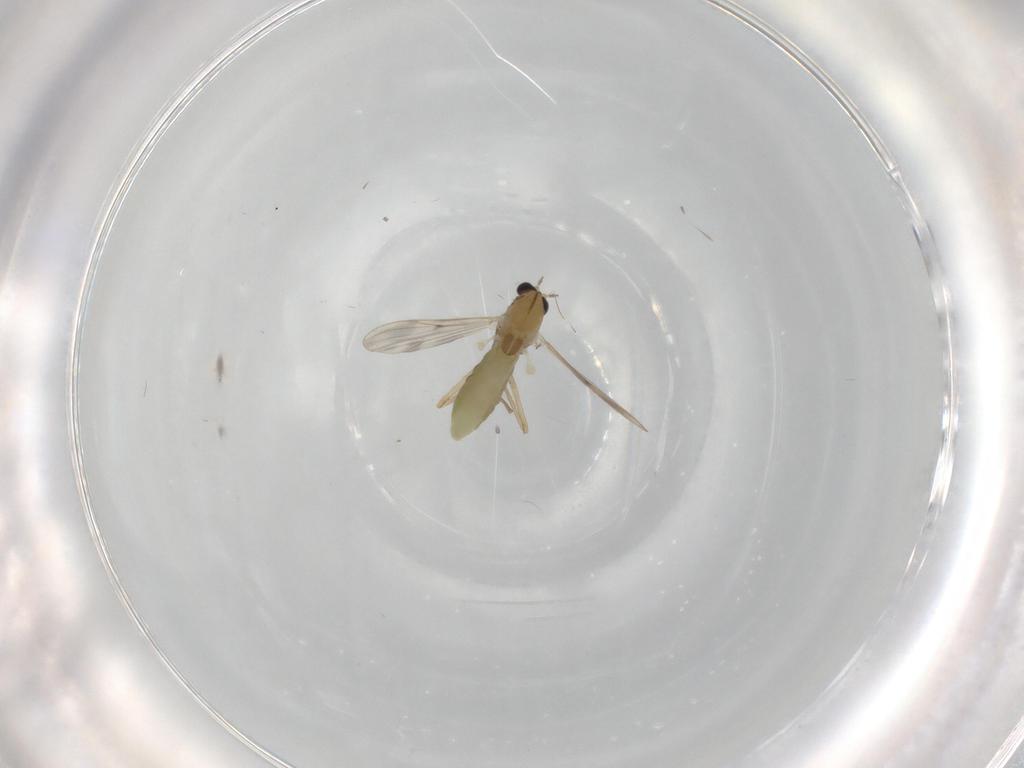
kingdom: Animalia
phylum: Arthropoda
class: Insecta
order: Diptera
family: Chironomidae
